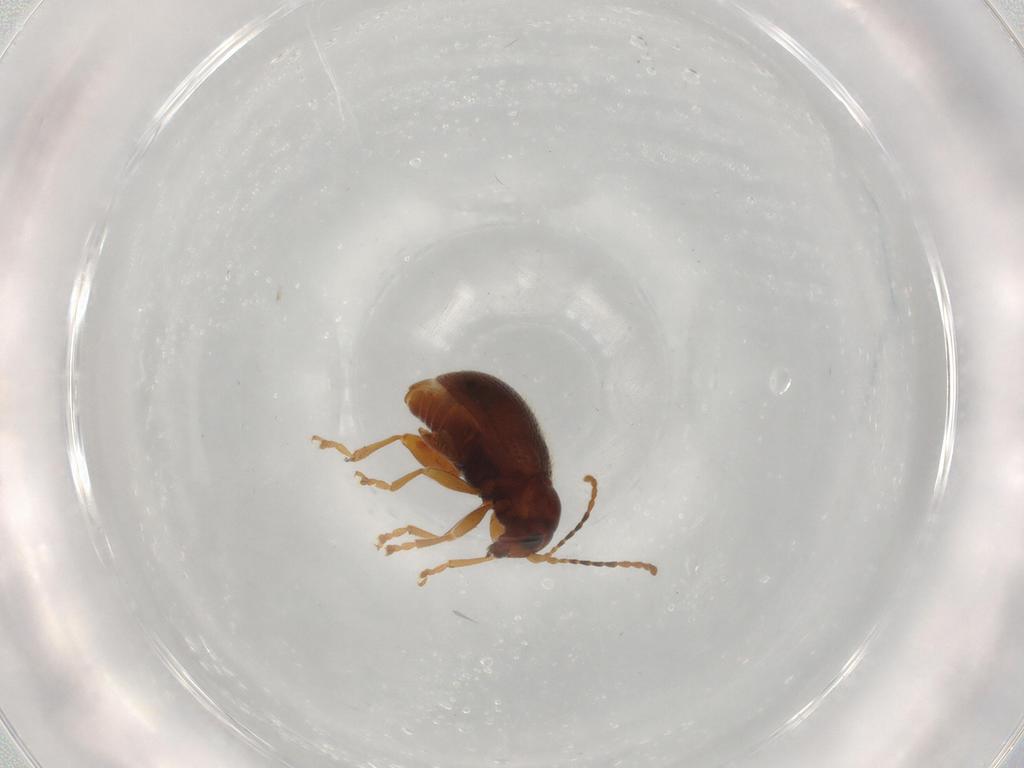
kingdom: Animalia
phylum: Arthropoda
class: Insecta
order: Coleoptera
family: Chrysomelidae
